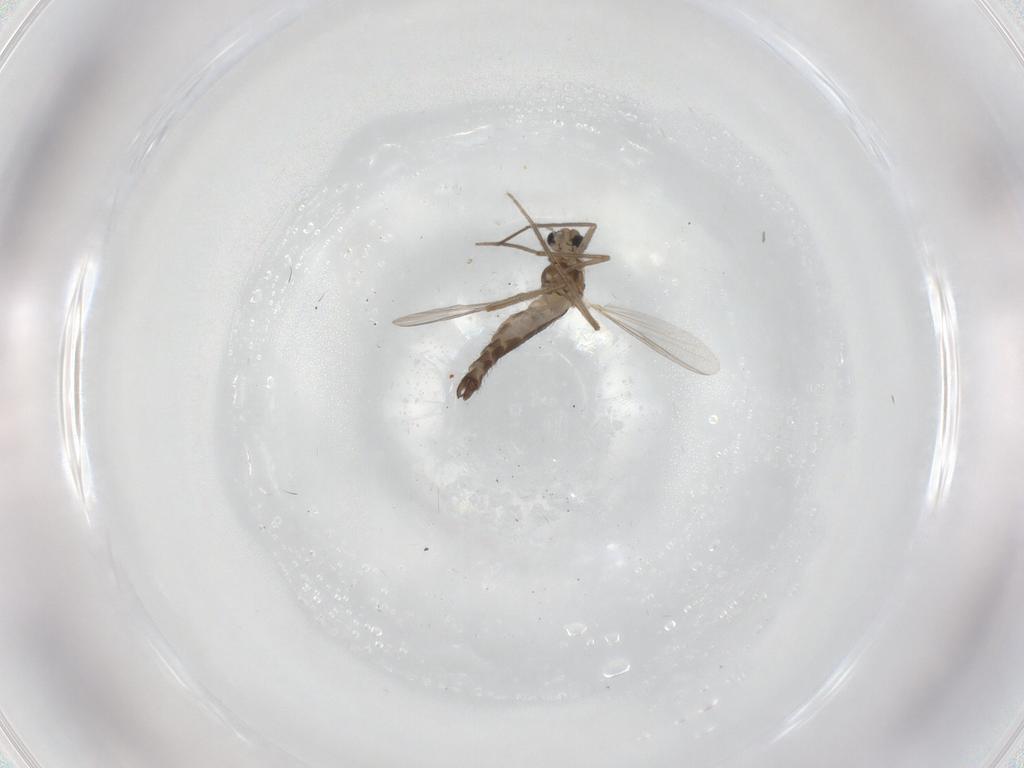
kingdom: Animalia
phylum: Arthropoda
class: Insecta
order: Diptera
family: Chironomidae
